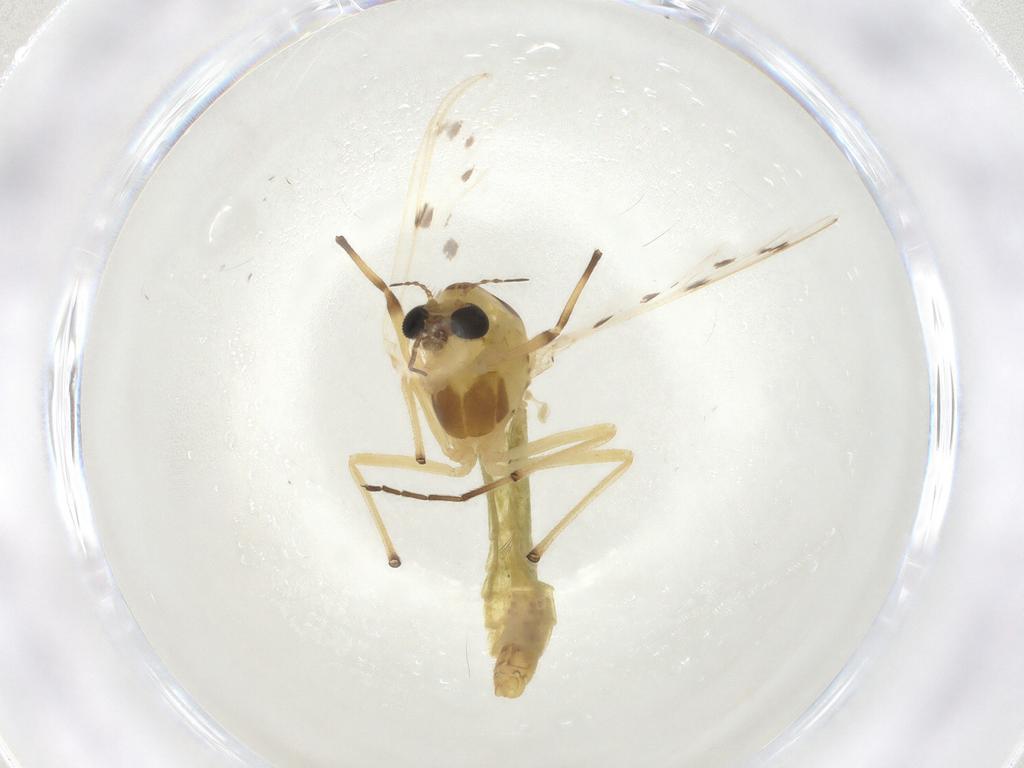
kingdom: Animalia
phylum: Arthropoda
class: Insecta
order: Diptera
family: Chironomidae
